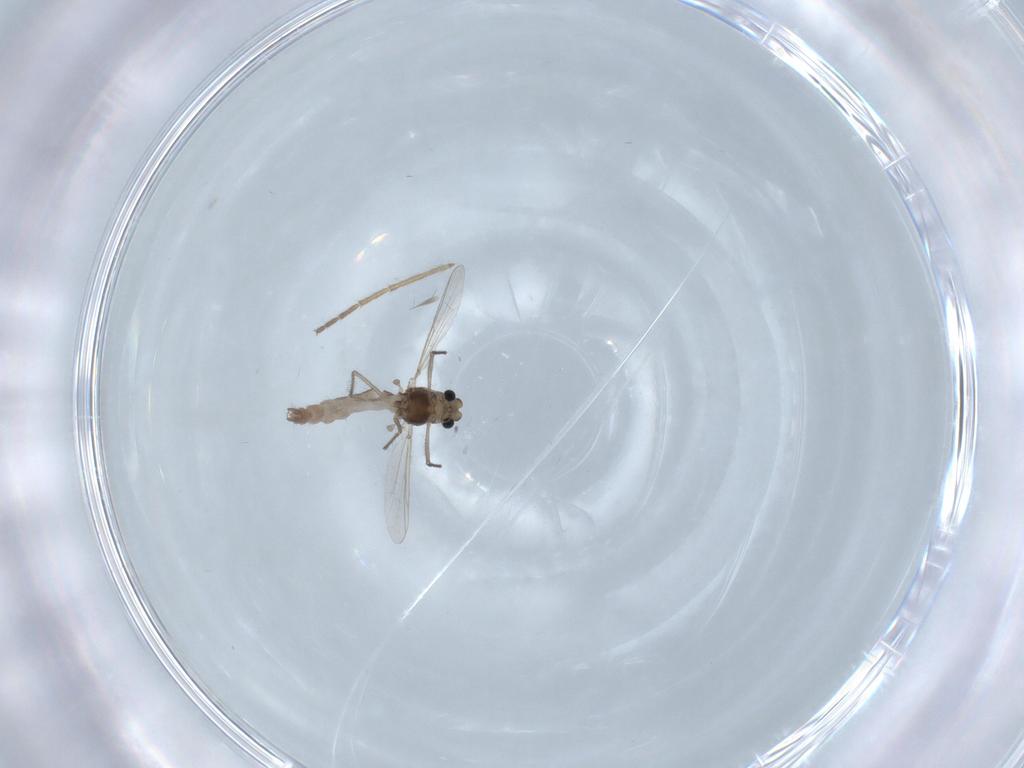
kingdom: Animalia
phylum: Arthropoda
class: Insecta
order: Diptera
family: Chironomidae
